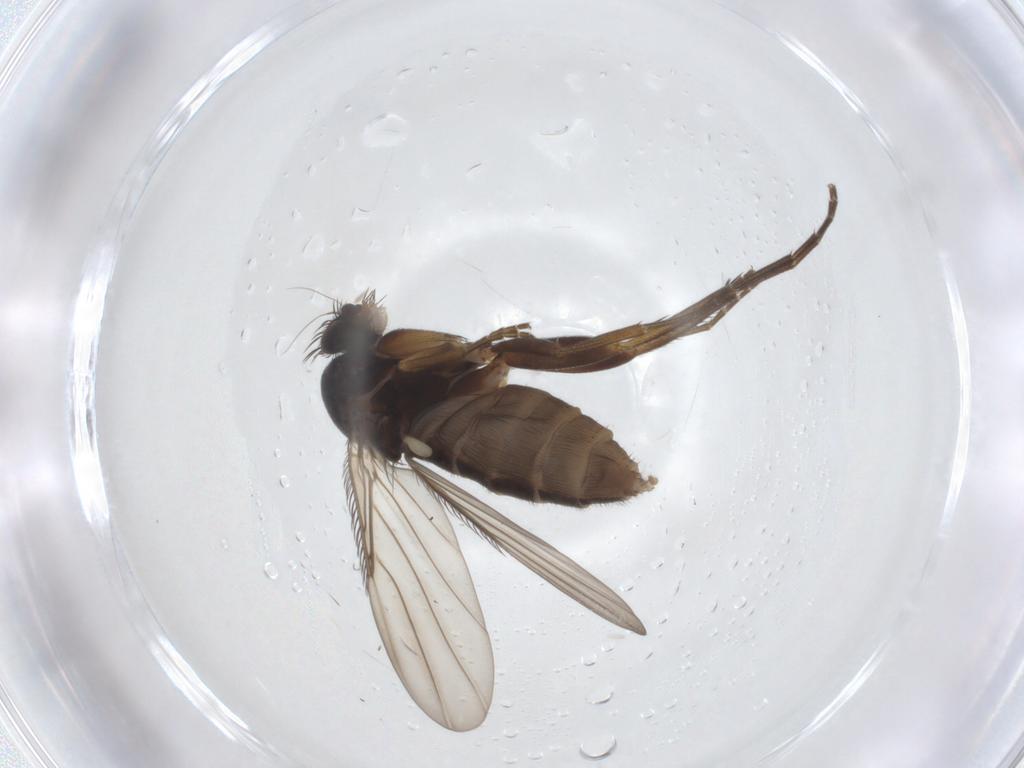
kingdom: Animalia
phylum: Arthropoda
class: Insecta
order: Diptera
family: Phoridae
